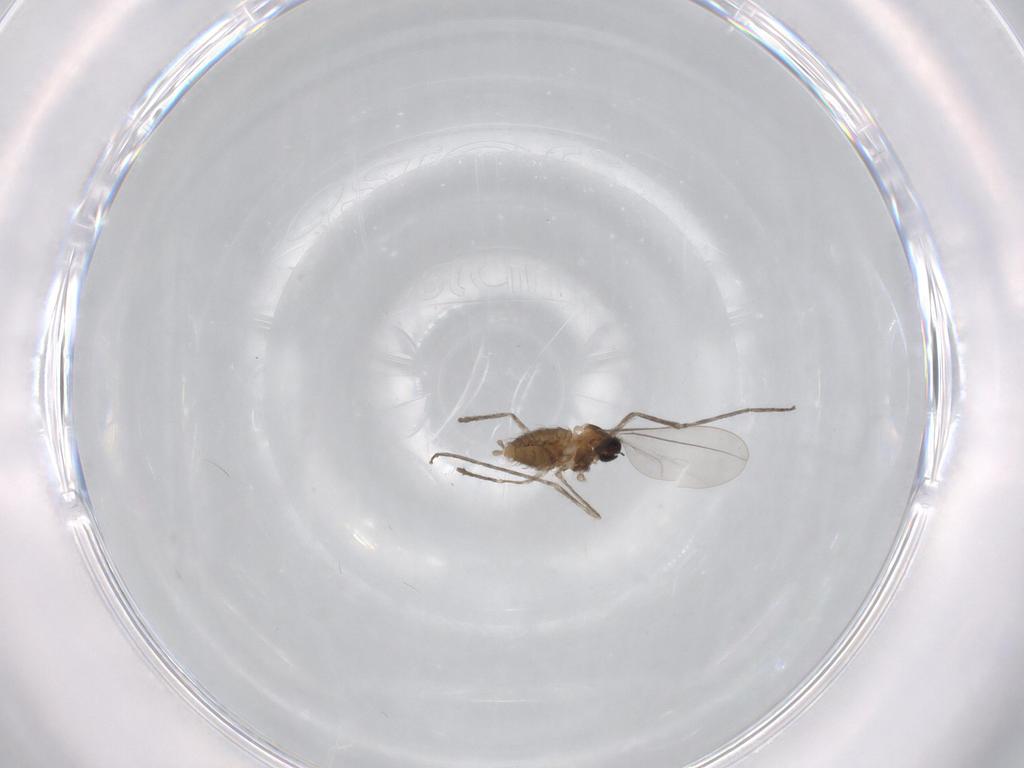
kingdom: Animalia
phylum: Arthropoda
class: Insecta
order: Diptera
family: Cecidomyiidae
